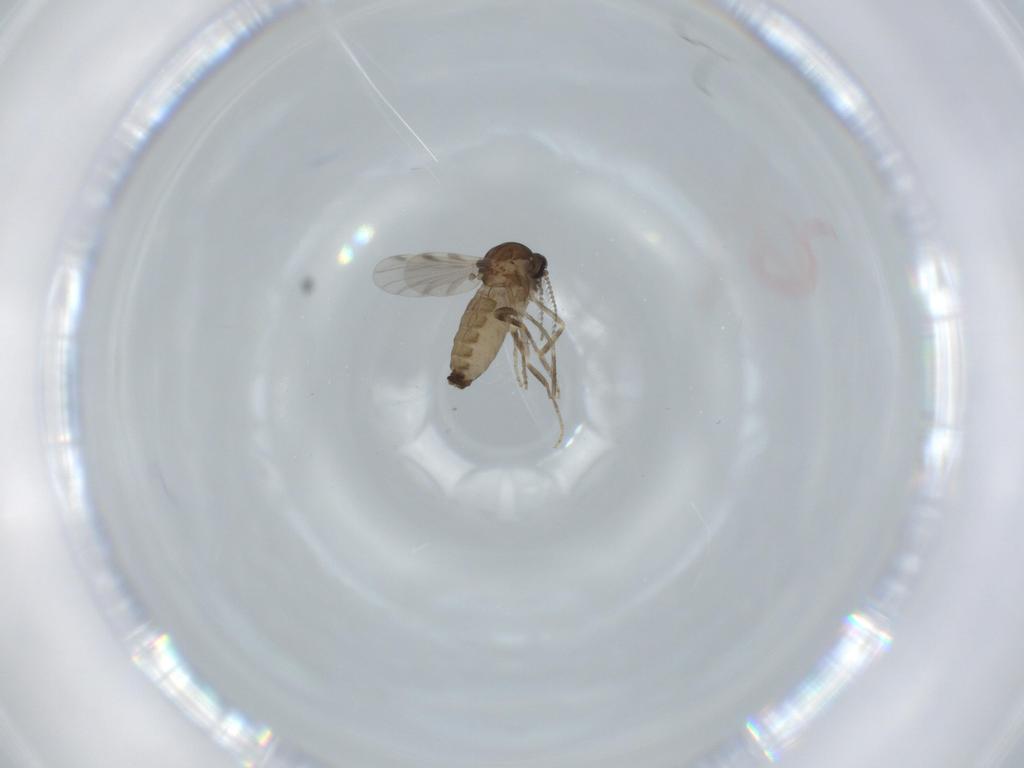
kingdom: Animalia
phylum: Arthropoda
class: Insecta
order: Diptera
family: Ceratopogonidae
